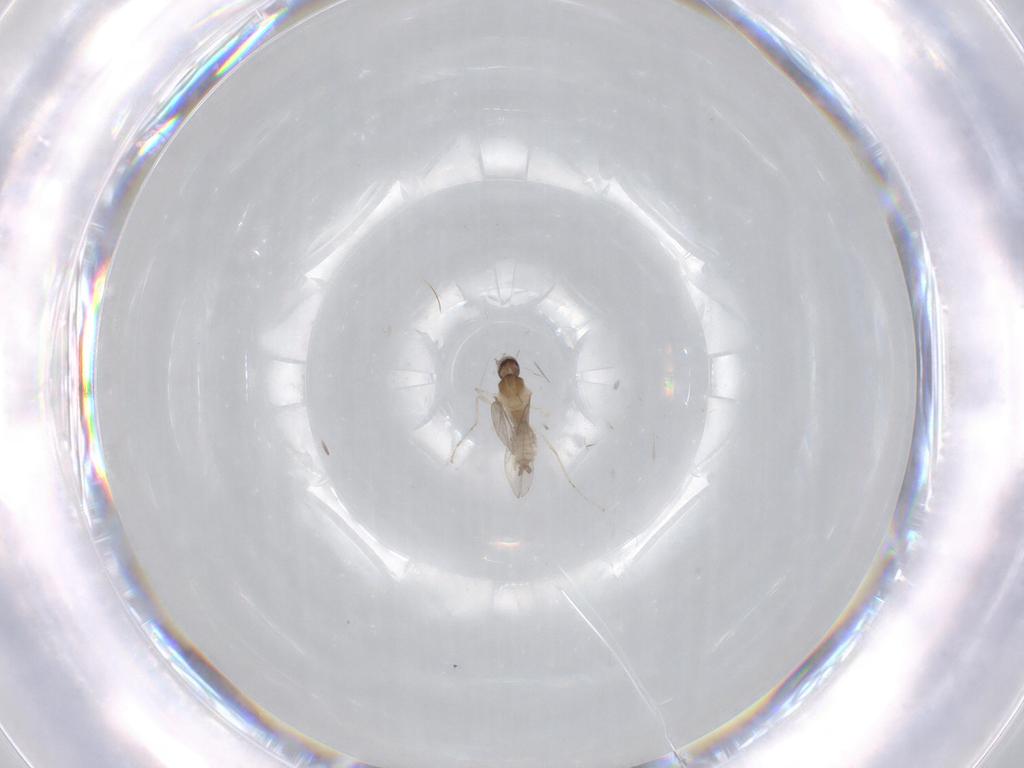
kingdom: Animalia
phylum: Arthropoda
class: Insecta
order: Diptera
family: Cecidomyiidae
